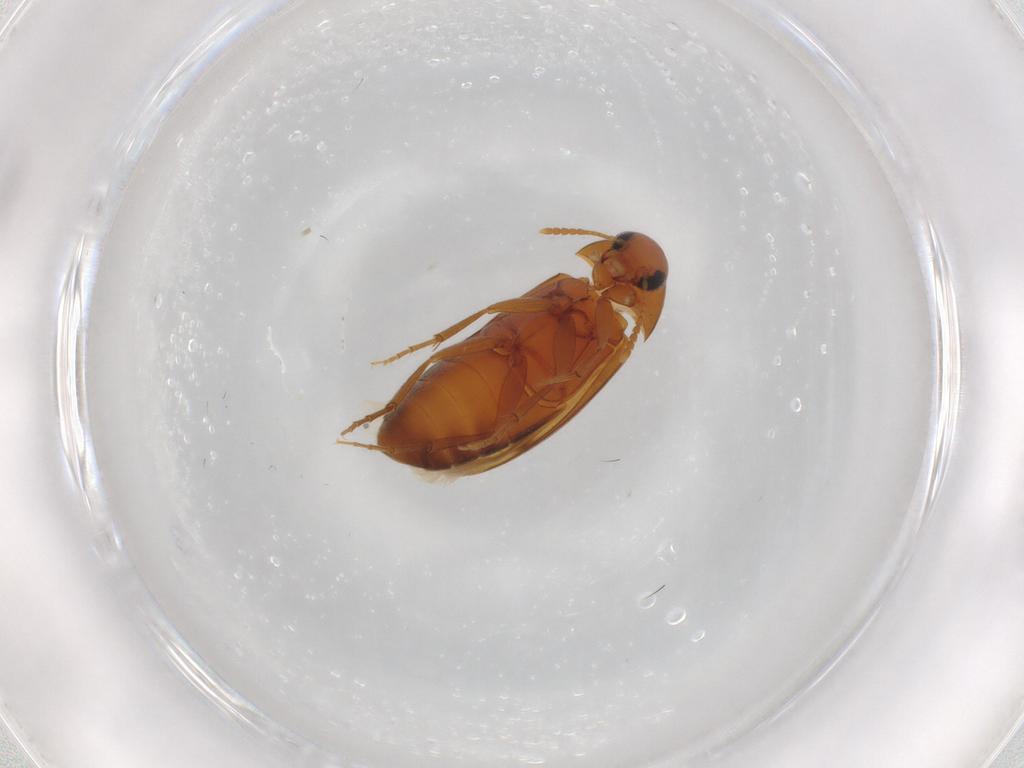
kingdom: Animalia
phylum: Arthropoda
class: Insecta
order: Coleoptera
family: Scraptiidae
